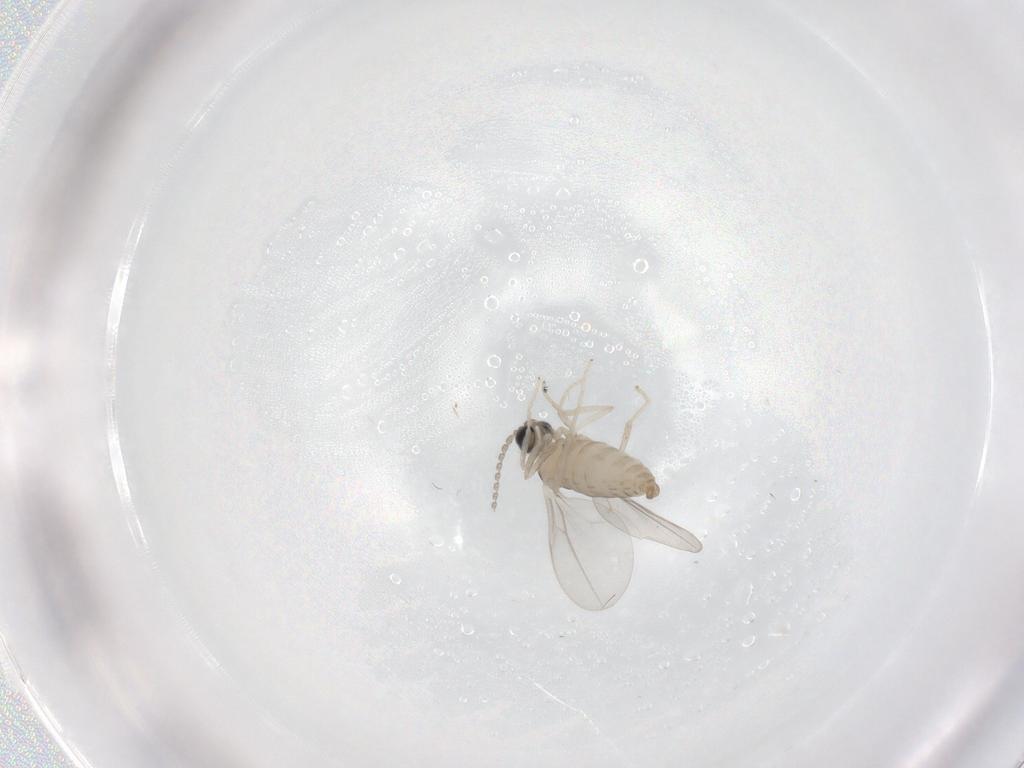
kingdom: Animalia
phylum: Arthropoda
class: Insecta
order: Diptera
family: Cecidomyiidae
